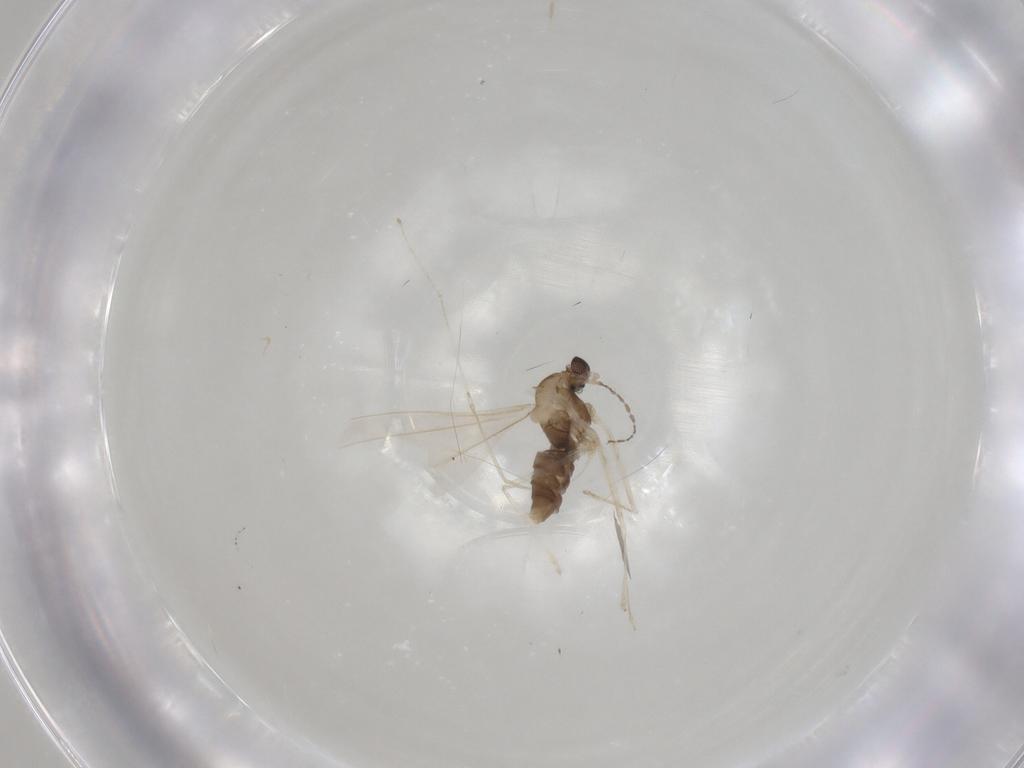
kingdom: Animalia
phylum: Arthropoda
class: Insecta
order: Diptera
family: Cecidomyiidae
